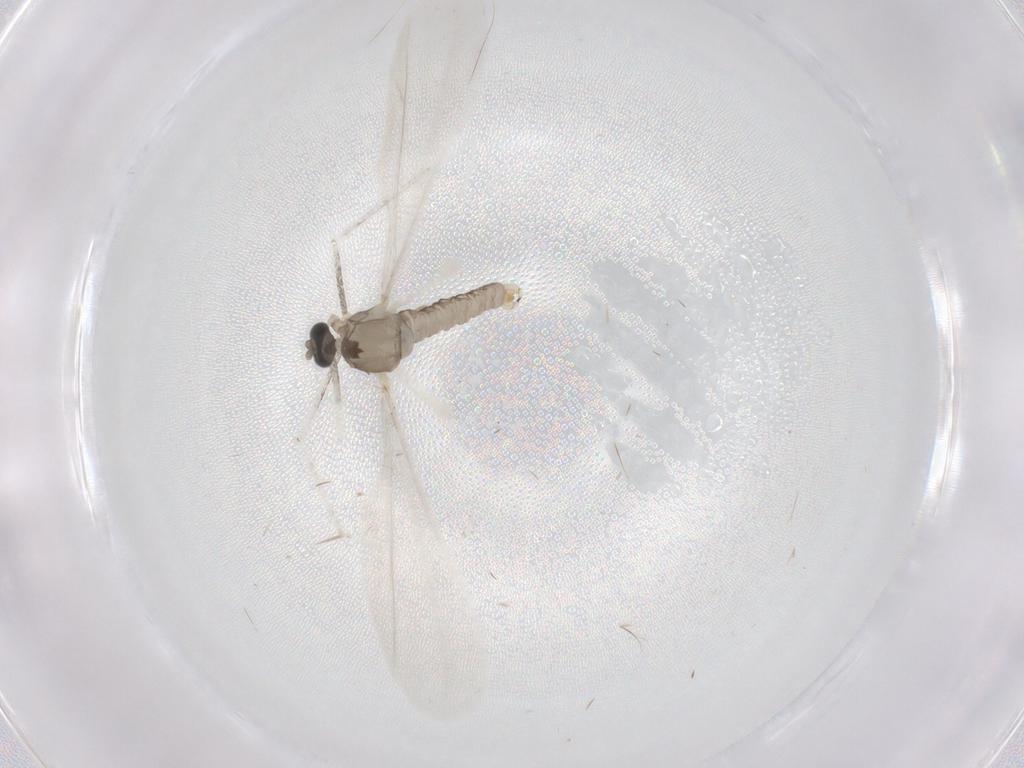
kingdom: Animalia
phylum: Arthropoda
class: Insecta
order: Diptera
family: Cecidomyiidae
